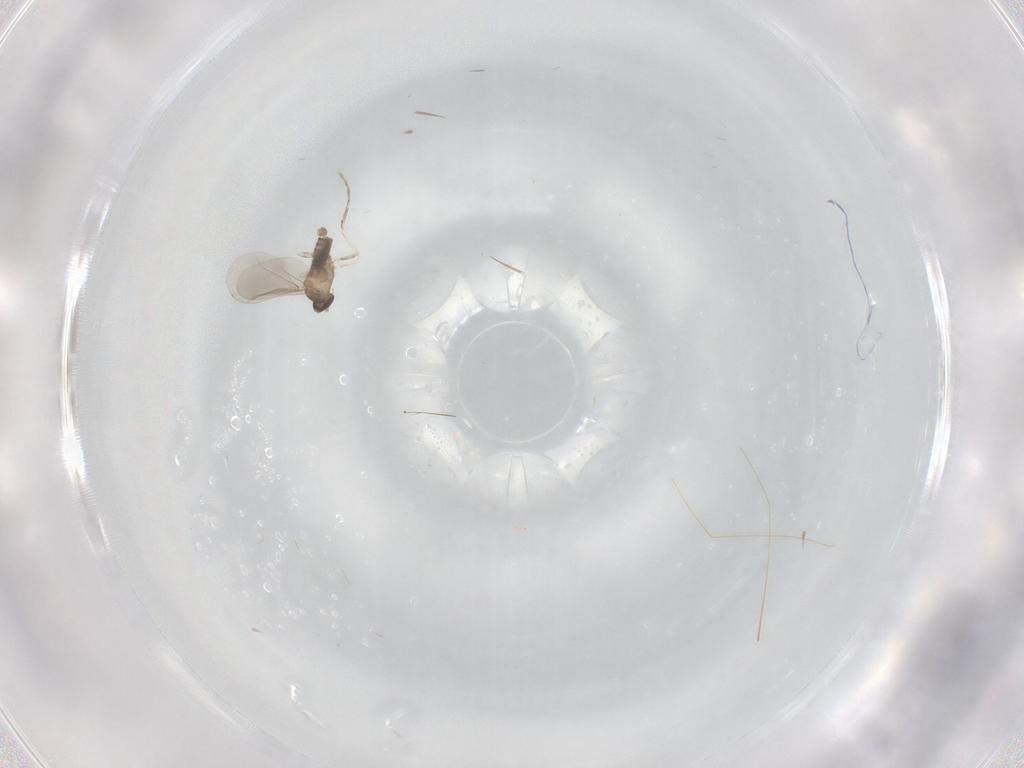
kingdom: Animalia
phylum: Arthropoda
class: Insecta
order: Diptera
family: Cecidomyiidae
